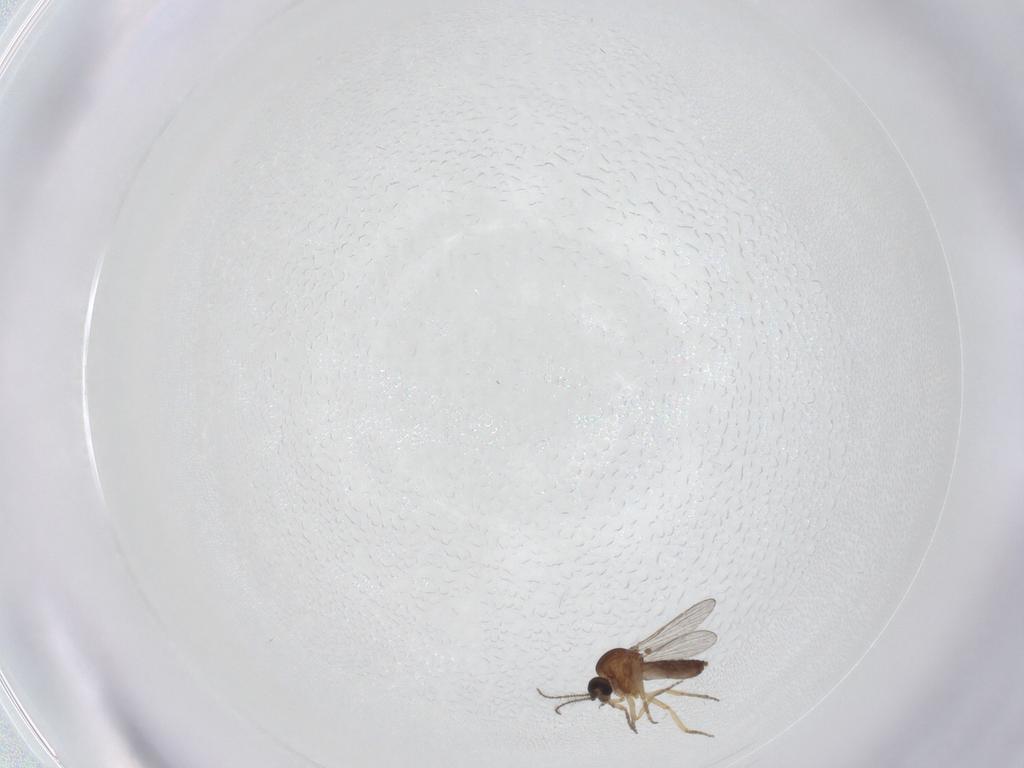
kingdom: Animalia
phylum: Arthropoda
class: Insecta
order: Diptera
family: Ceratopogonidae
